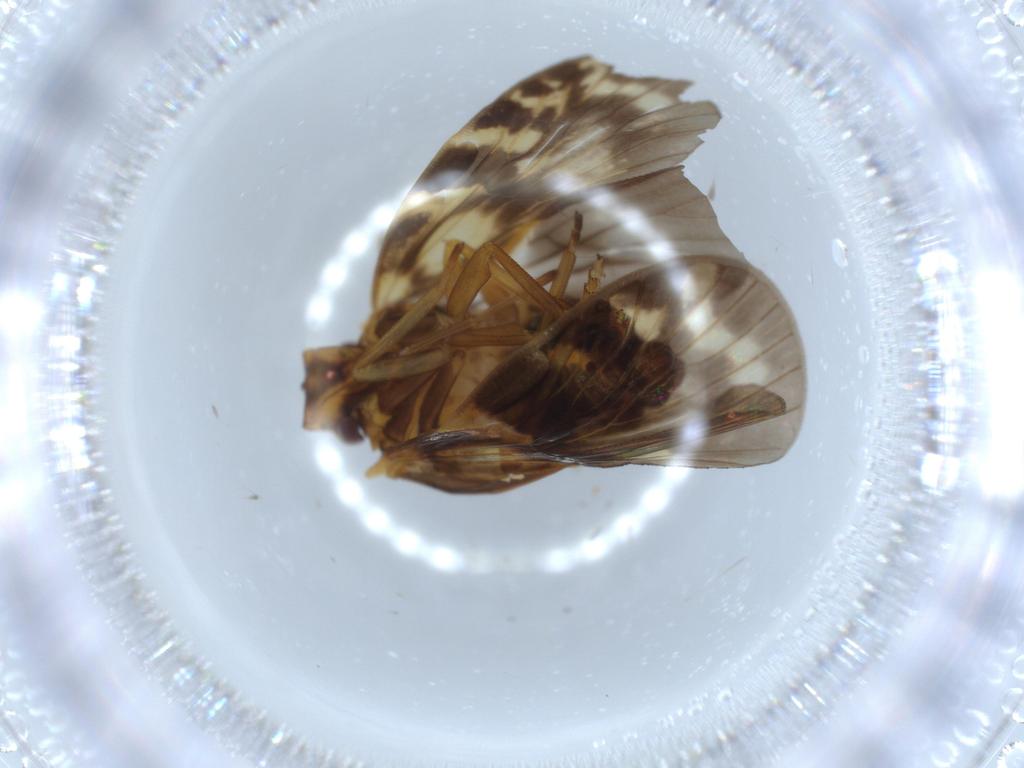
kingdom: Animalia
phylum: Arthropoda
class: Insecta
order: Hemiptera
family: Cixiidae
